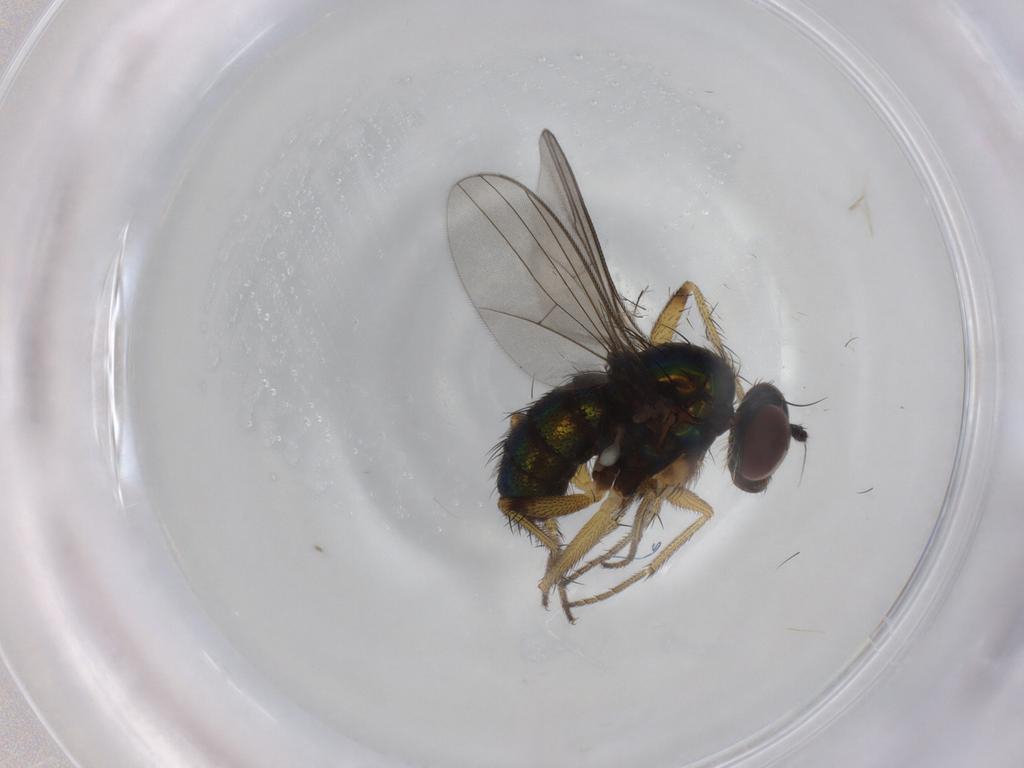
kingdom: Animalia
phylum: Arthropoda
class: Insecta
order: Diptera
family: Dolichopodidae
